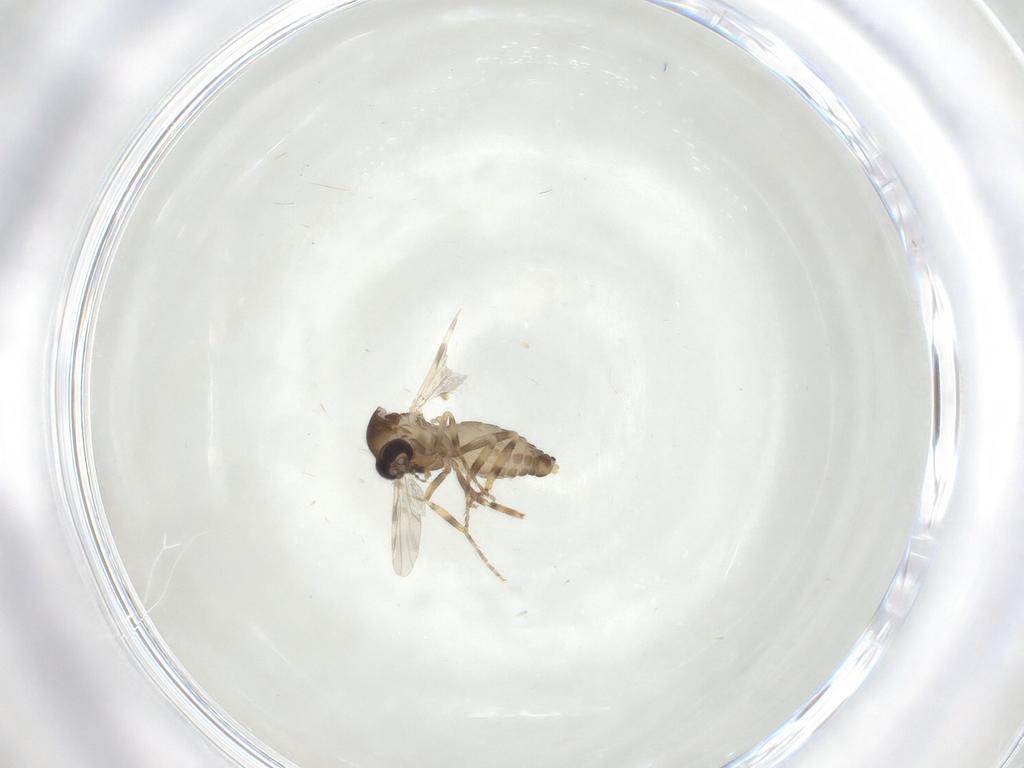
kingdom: Animalia
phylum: Arthropoda
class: Insecta
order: Diptera
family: Ceratopogonidae
